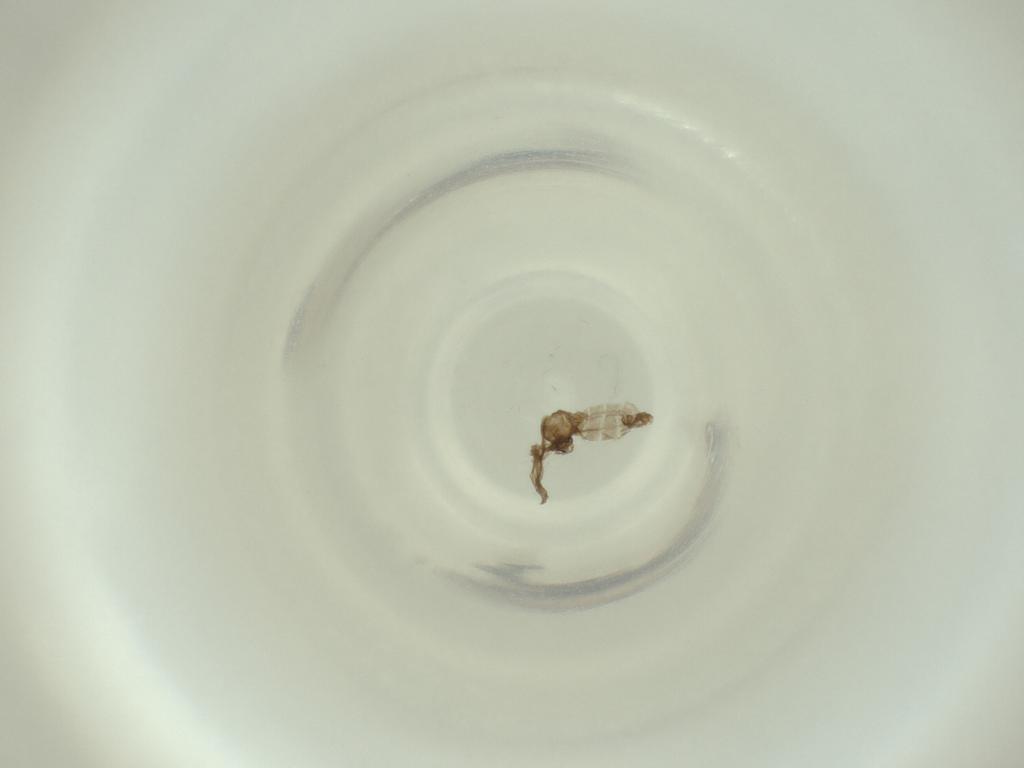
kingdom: Animalia
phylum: Arthropoda
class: Insecta
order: Diptera
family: Cecidomyiidae
